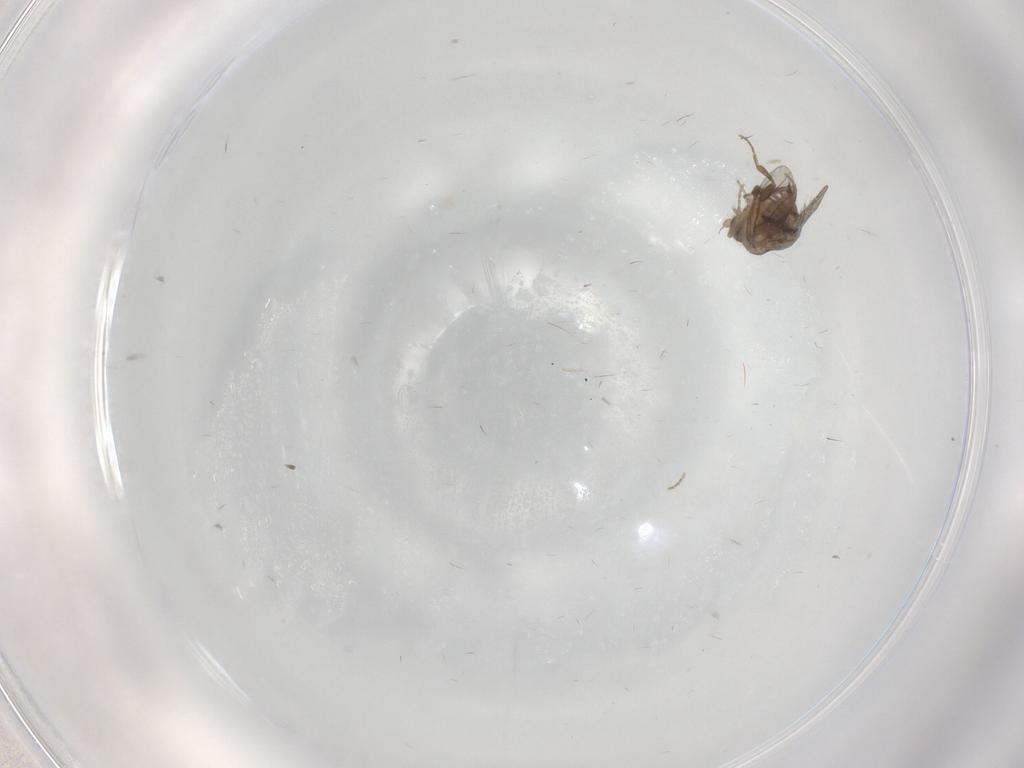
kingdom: Animalia
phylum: Arthropoda
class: Insecta
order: Diptera
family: Psychodidae
